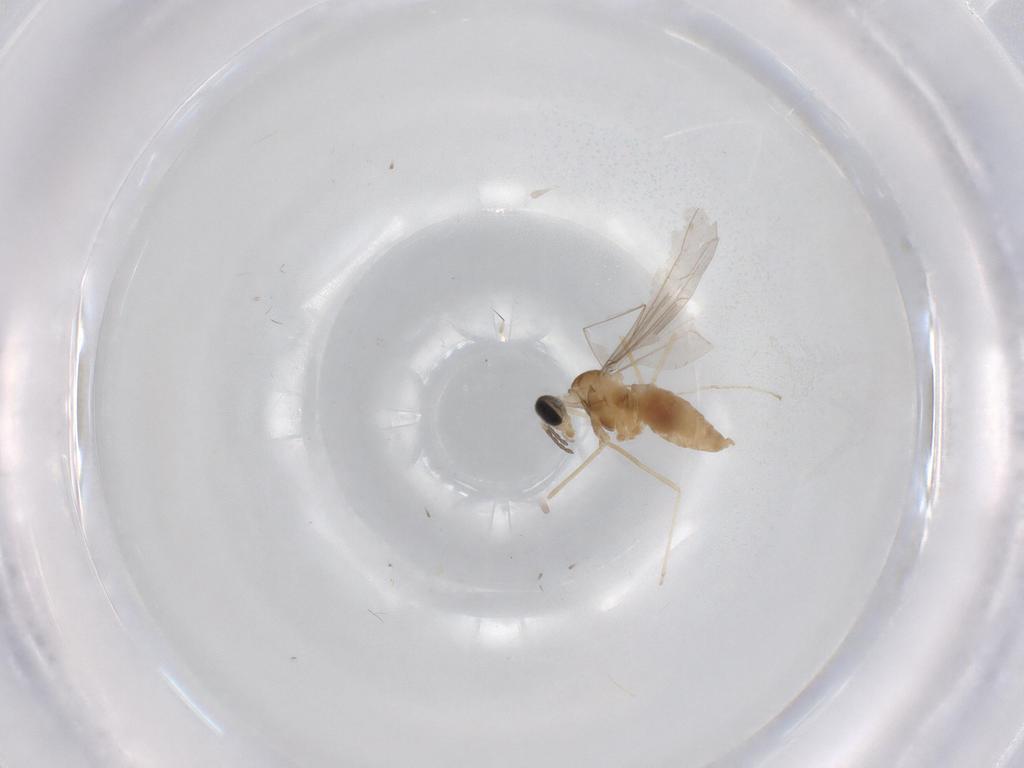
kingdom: Animalia
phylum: Arthropoda
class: Insecta
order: Diptera
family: Cecidomyiidae
